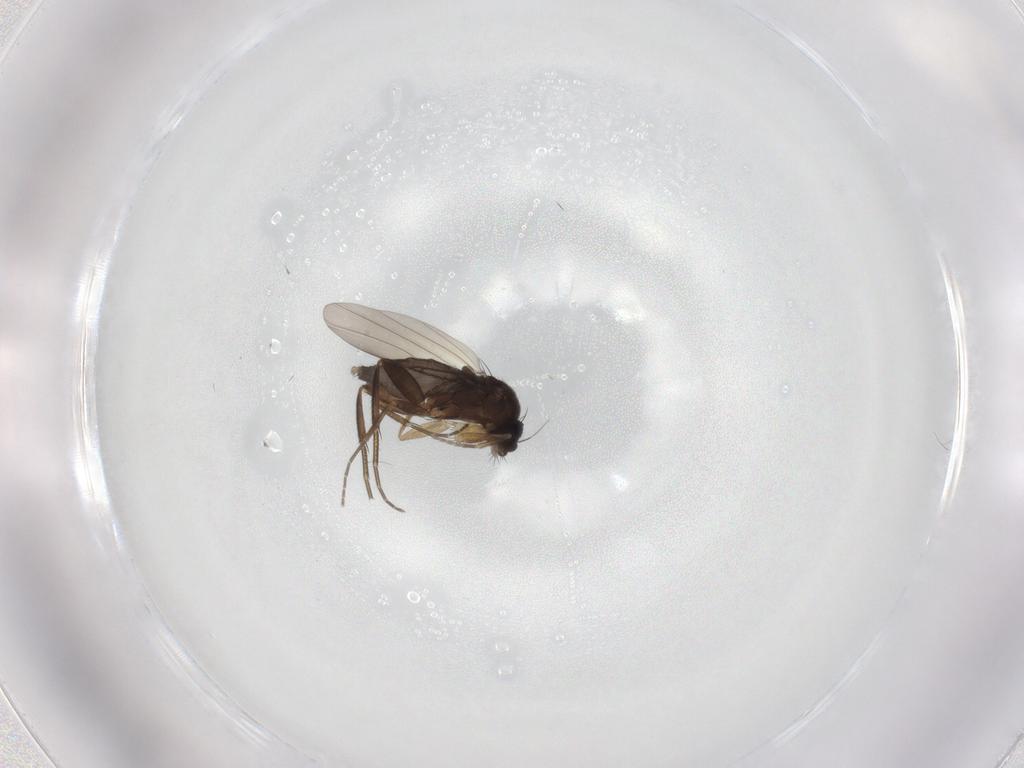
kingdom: Animalia
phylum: Arthropoda
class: Insecta
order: Diptera
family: Phoridae
